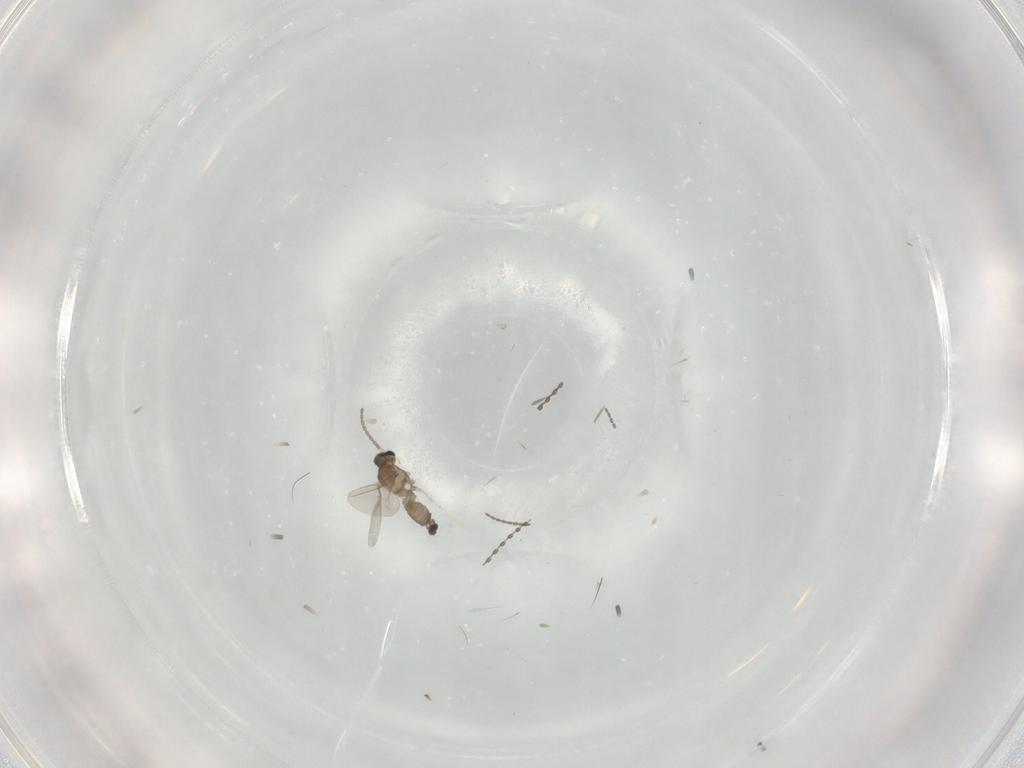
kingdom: Animalia
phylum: Arthropoda
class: Insecta
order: Diptera
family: Cecidomyiidae
